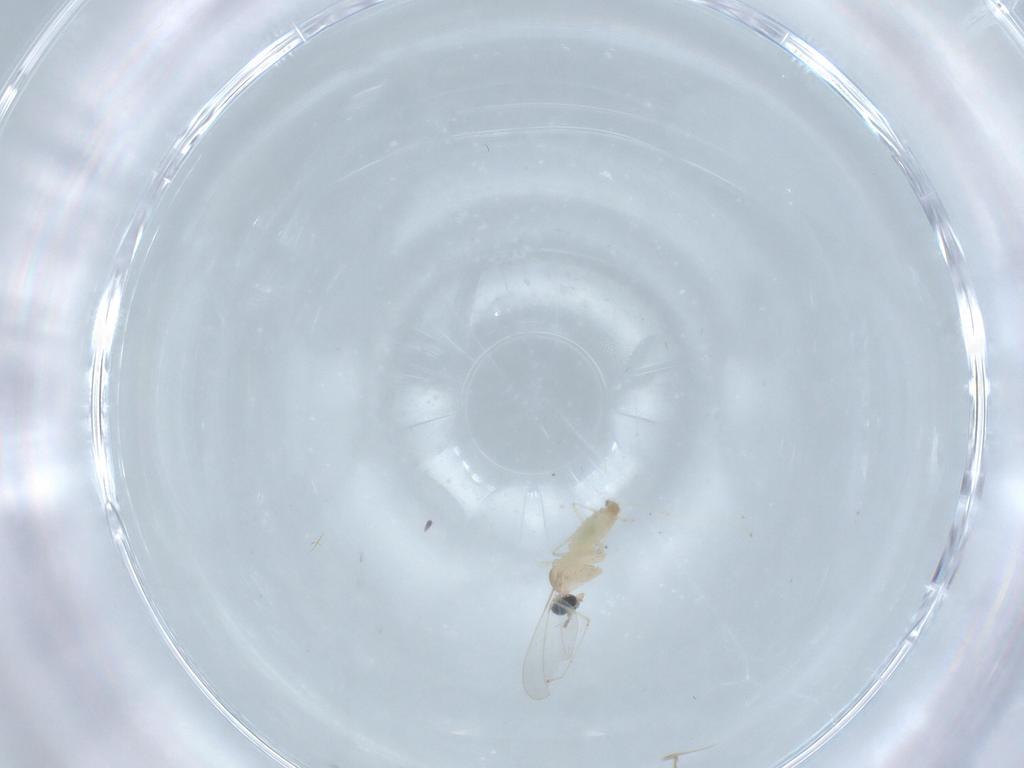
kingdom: Animalia
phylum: Arthropoda
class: Insecta
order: Diptera
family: Cecidomyiidae
